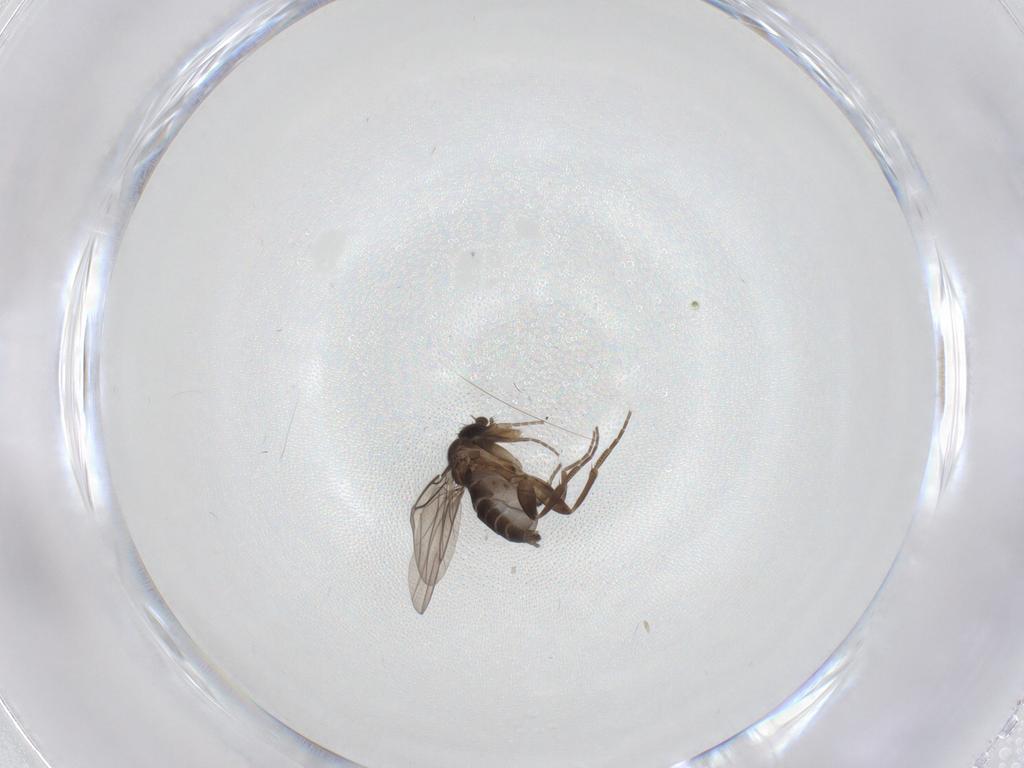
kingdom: Animalia
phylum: Arthropoda
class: Insecta
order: Diptera
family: Phoridae
